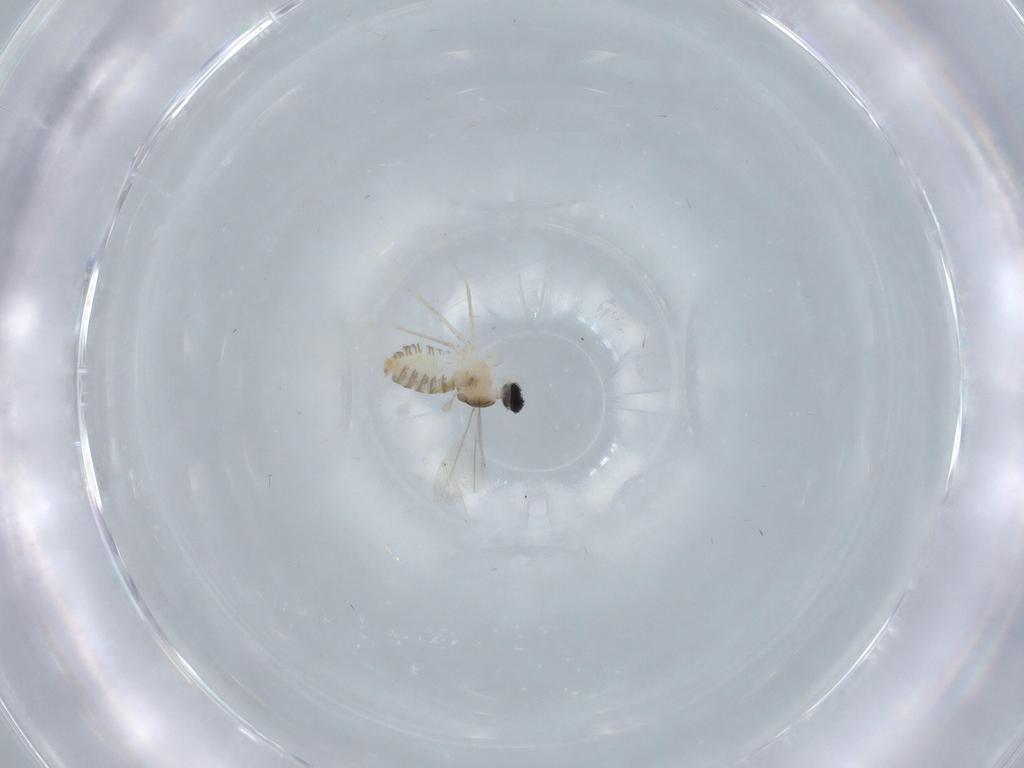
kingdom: Animalia
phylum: Arthropoda
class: Insecta
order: Diptera
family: Cecidomyiidae
